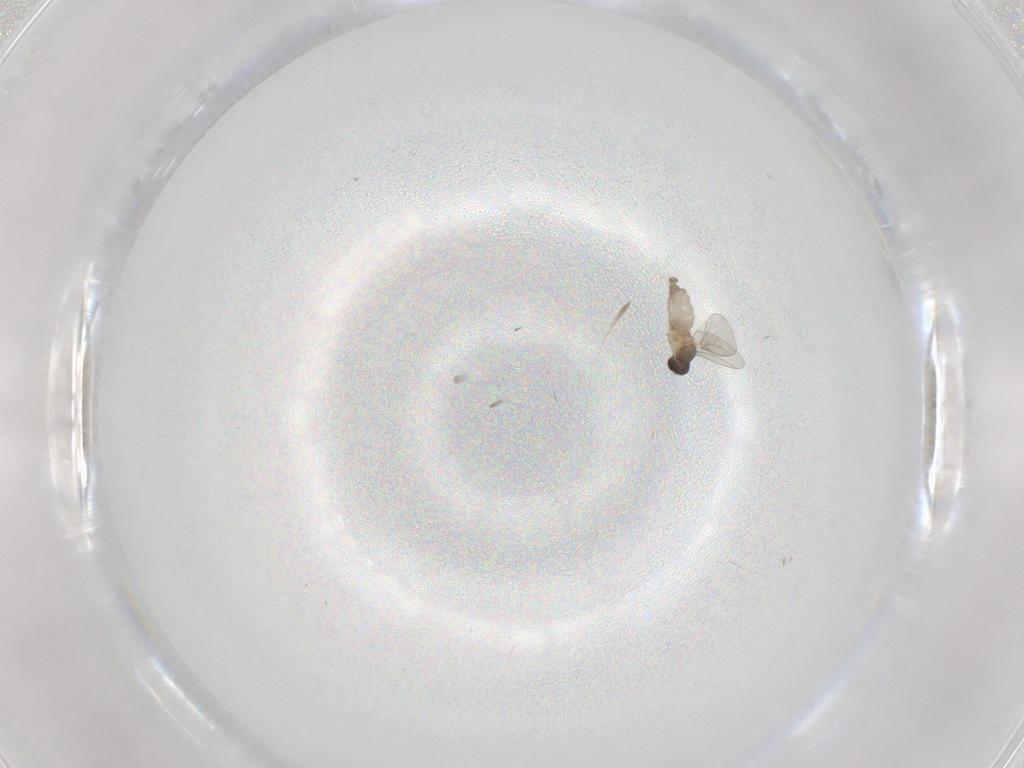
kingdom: Animalia
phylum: Arthropoda
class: Insecta
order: Diptera
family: Cecidomyiidae
